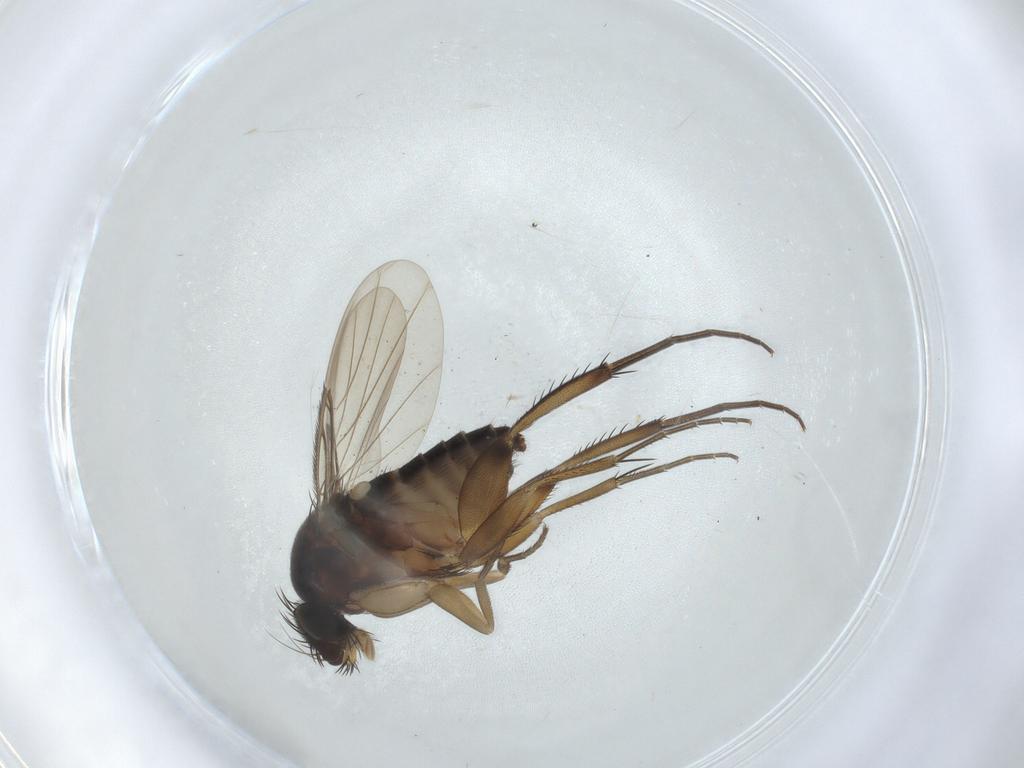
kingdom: Animalia
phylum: Arthropoda
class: Insecta
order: Diptera
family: Phoridae
